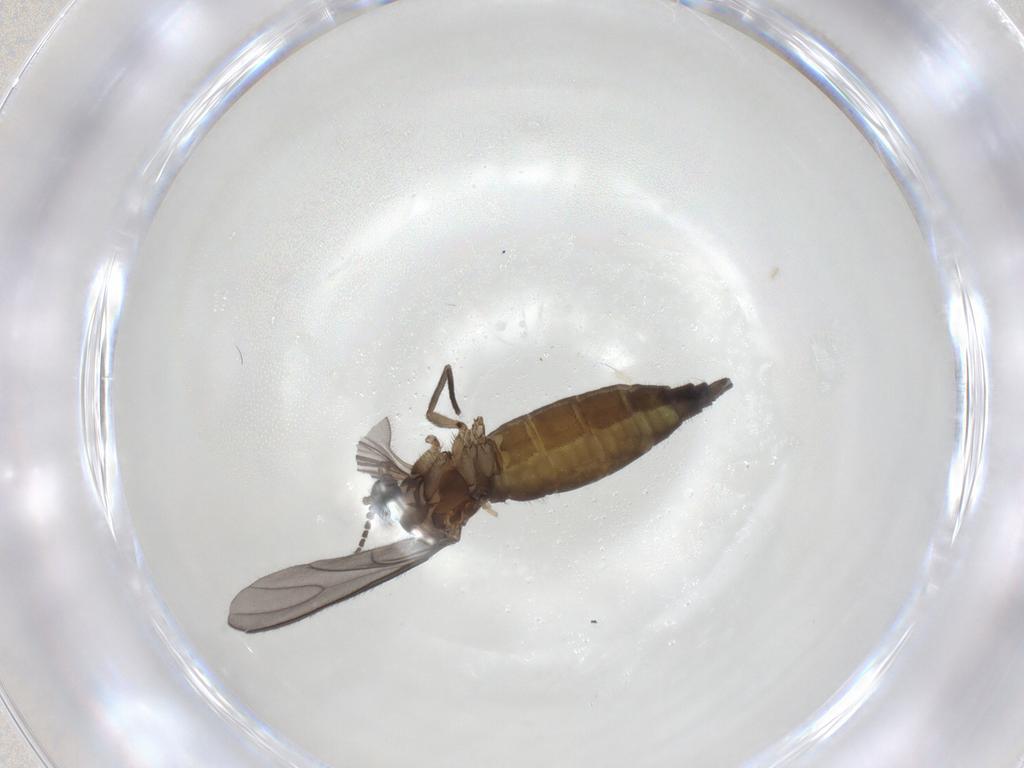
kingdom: Animalia
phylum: Arthropoda
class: Insecta
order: Diptera
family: Sciaridae
